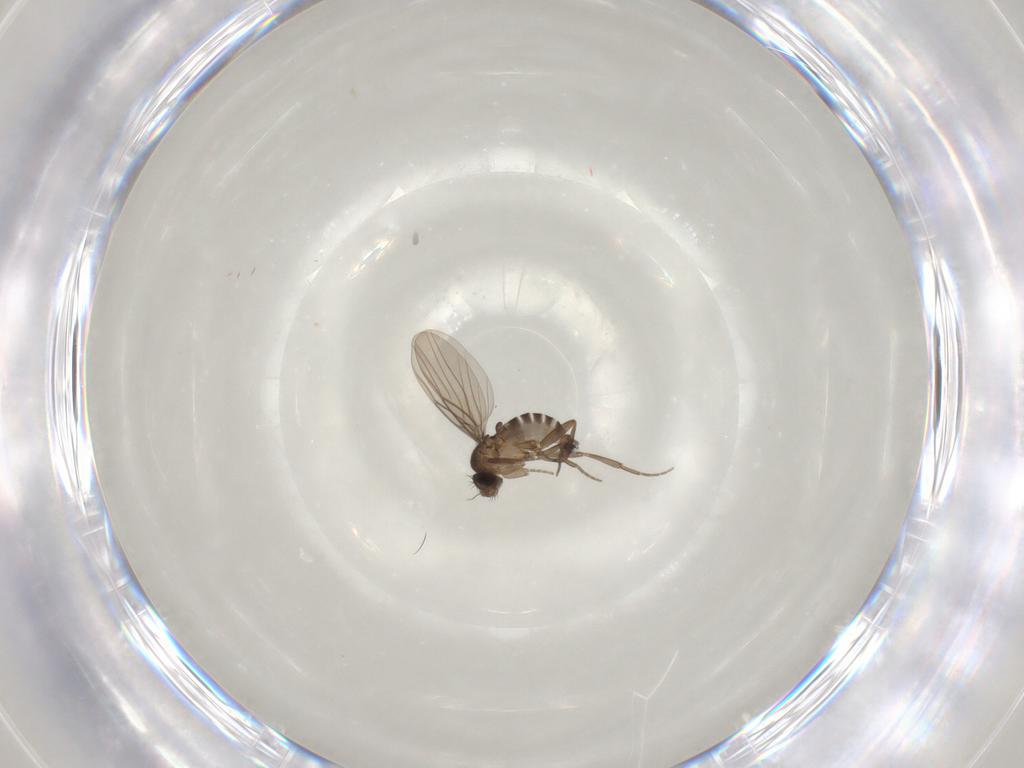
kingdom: Animalia
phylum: Arthropoda
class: Insecta
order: Diptera
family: Phoridae
